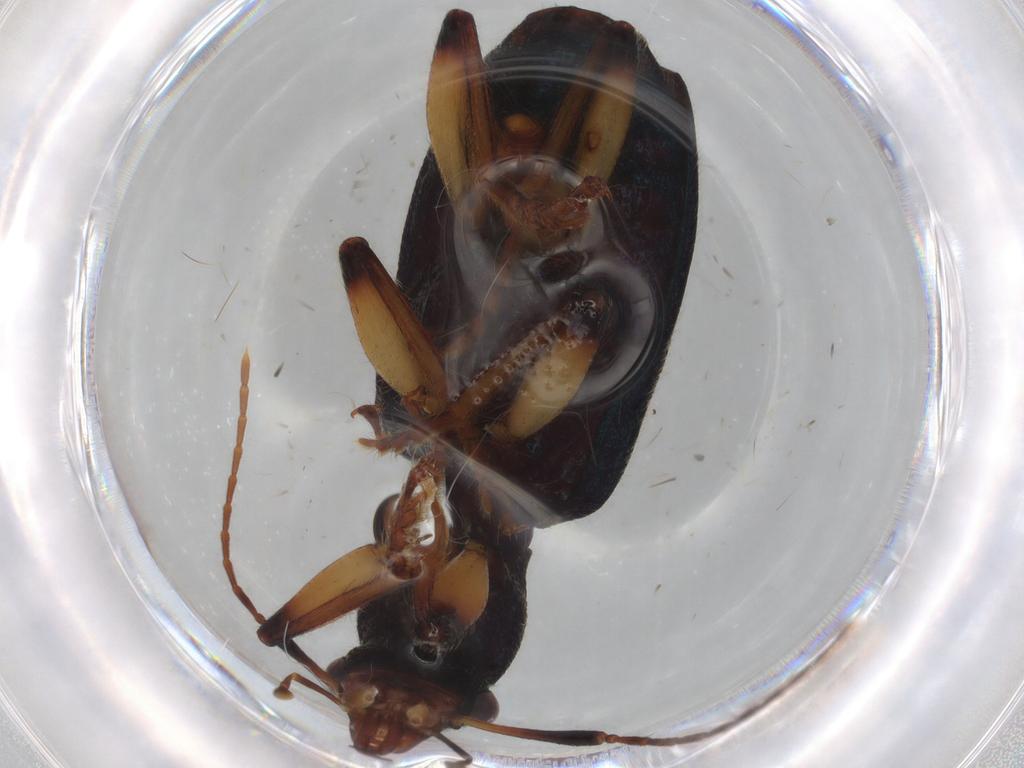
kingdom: Animalia
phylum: Arthropoda
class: Insecta
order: Coleoptera
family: Carabidae
